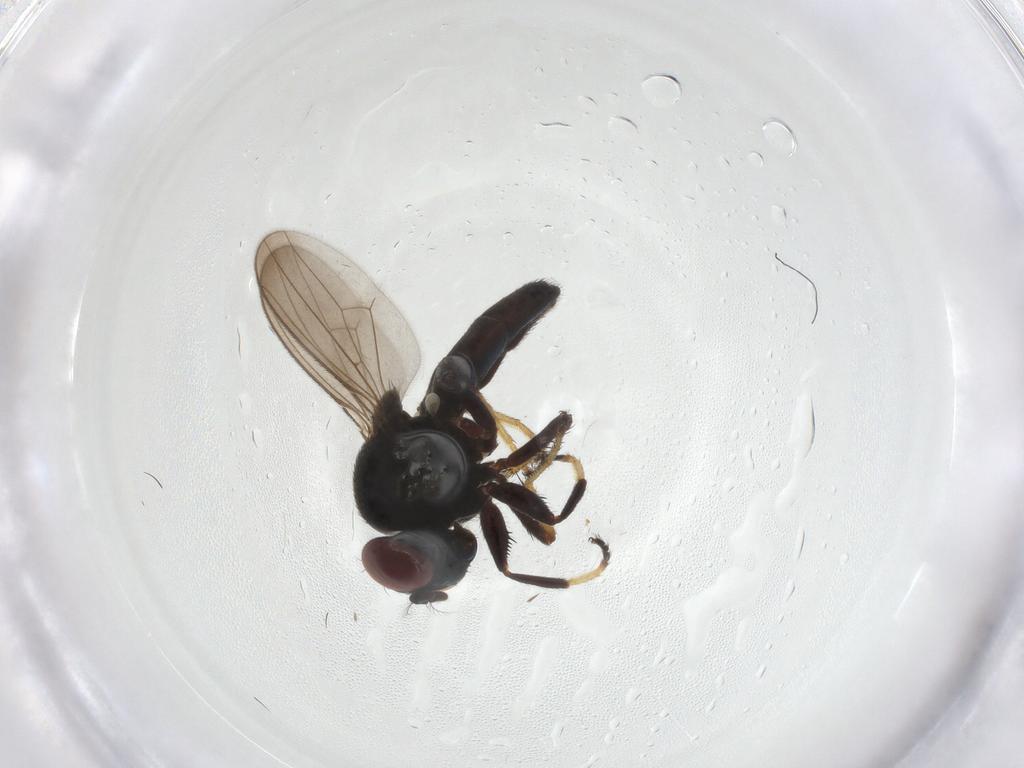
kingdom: Animalia
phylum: Arthropoda
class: Insecta
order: Diptera
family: Ephydridae
